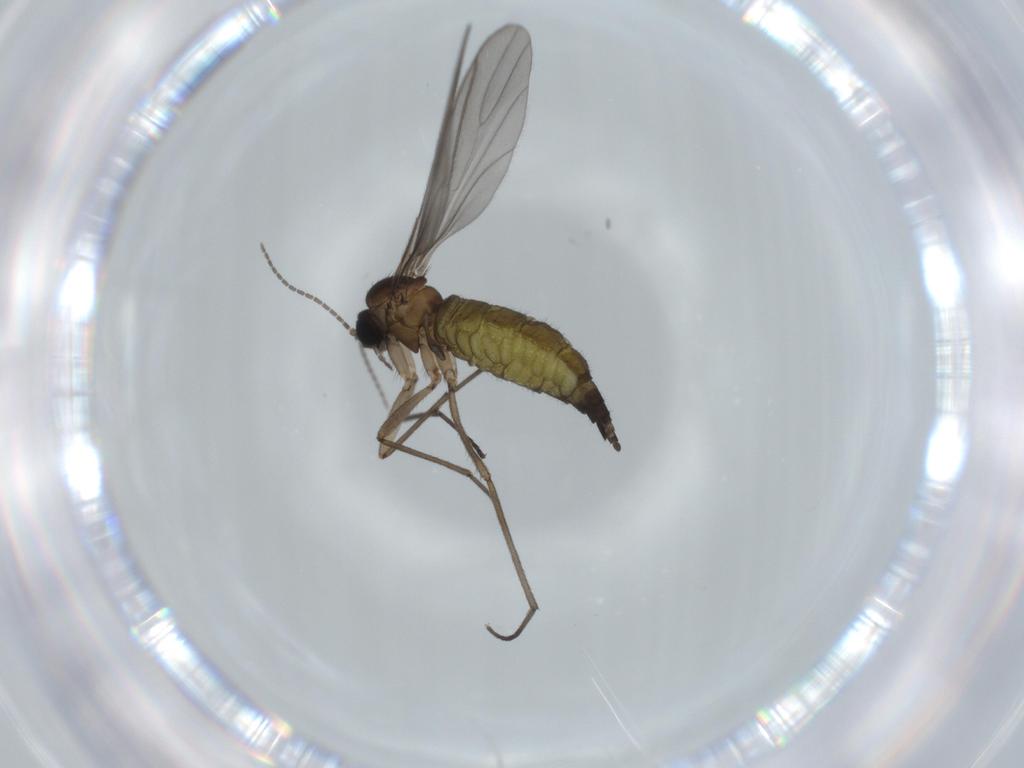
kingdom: Animalia
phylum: Arthropoda
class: Insecta
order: Diptera
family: Sciaridae
